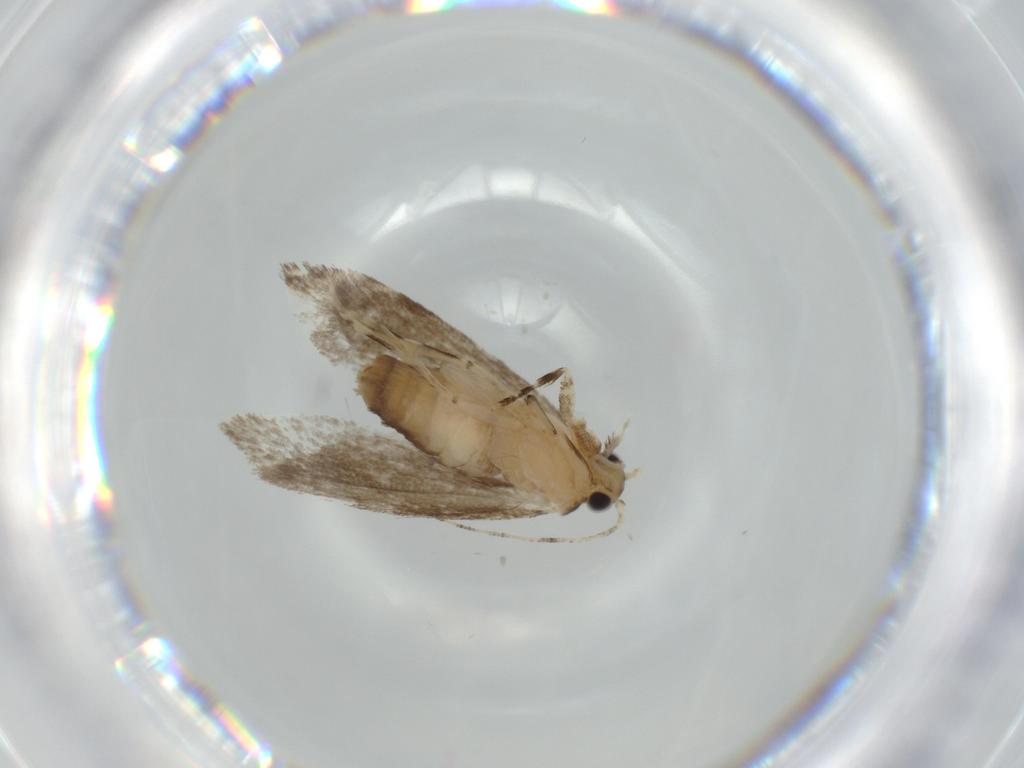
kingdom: Animalia
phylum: Arthropoda
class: Insecta
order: Lepidoptera
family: Tineidae
